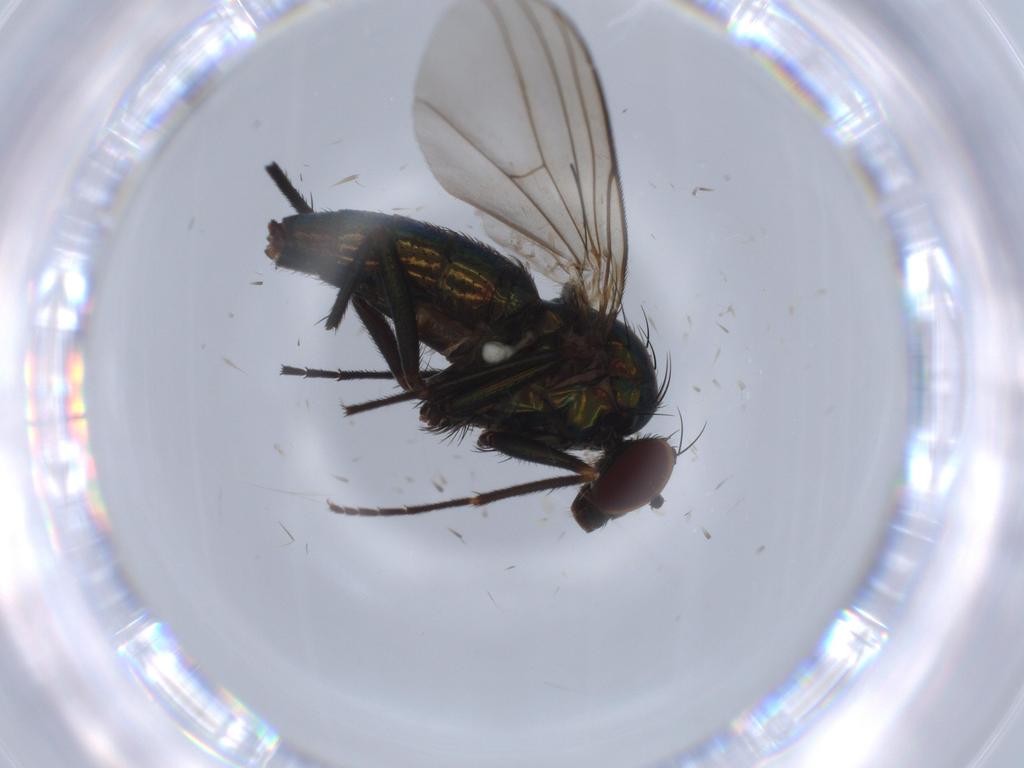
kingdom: Animalia
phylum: Arthropoda
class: Insecta
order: Diptera
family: Dolichopodidae
